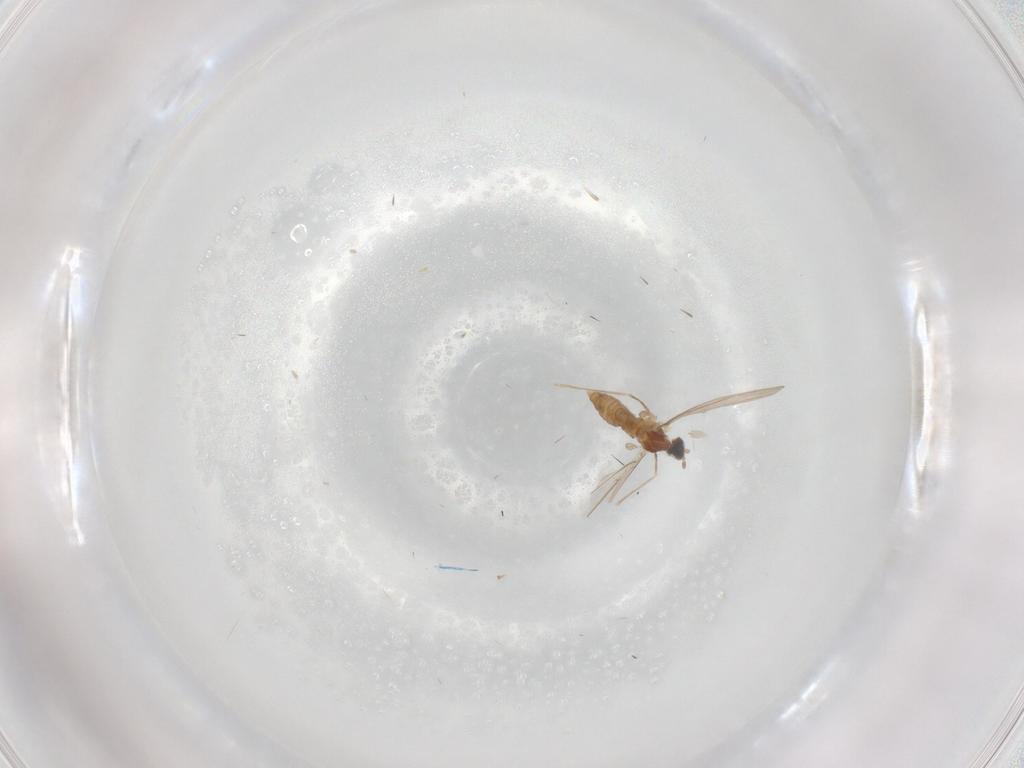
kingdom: Animalia
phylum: Arthropoda
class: Insecta
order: Diptera
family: Cecidomyiidae
